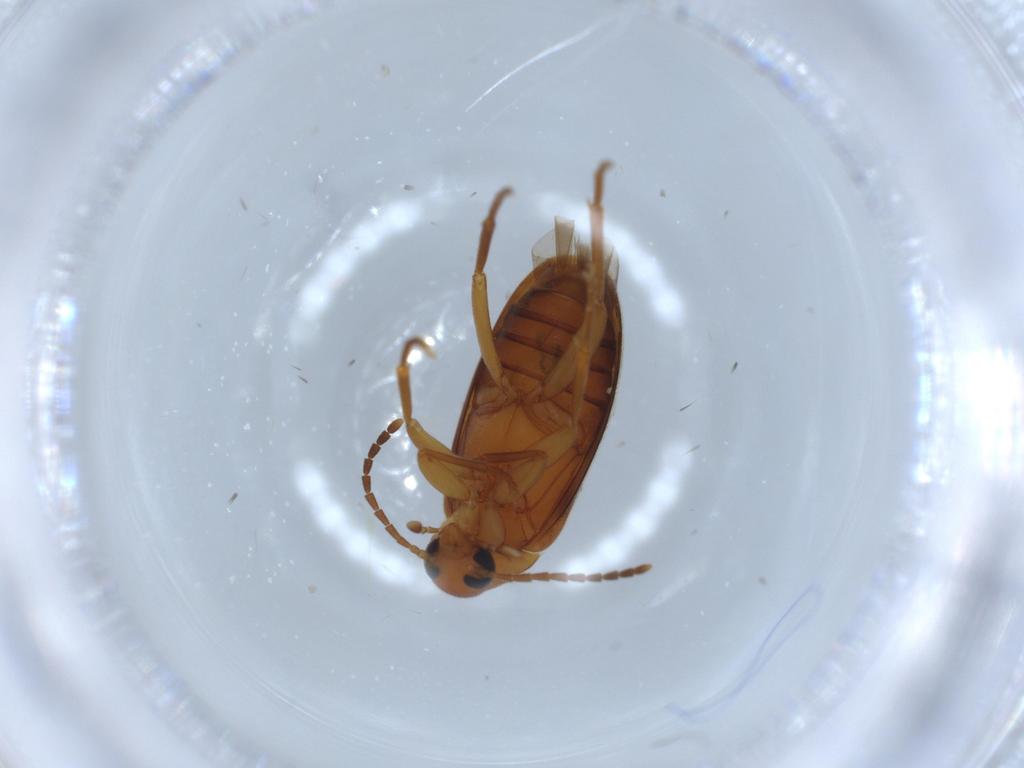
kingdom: Animalia
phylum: Arthropoda
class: Insecta
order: Coleoptera
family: Scraptiidae
